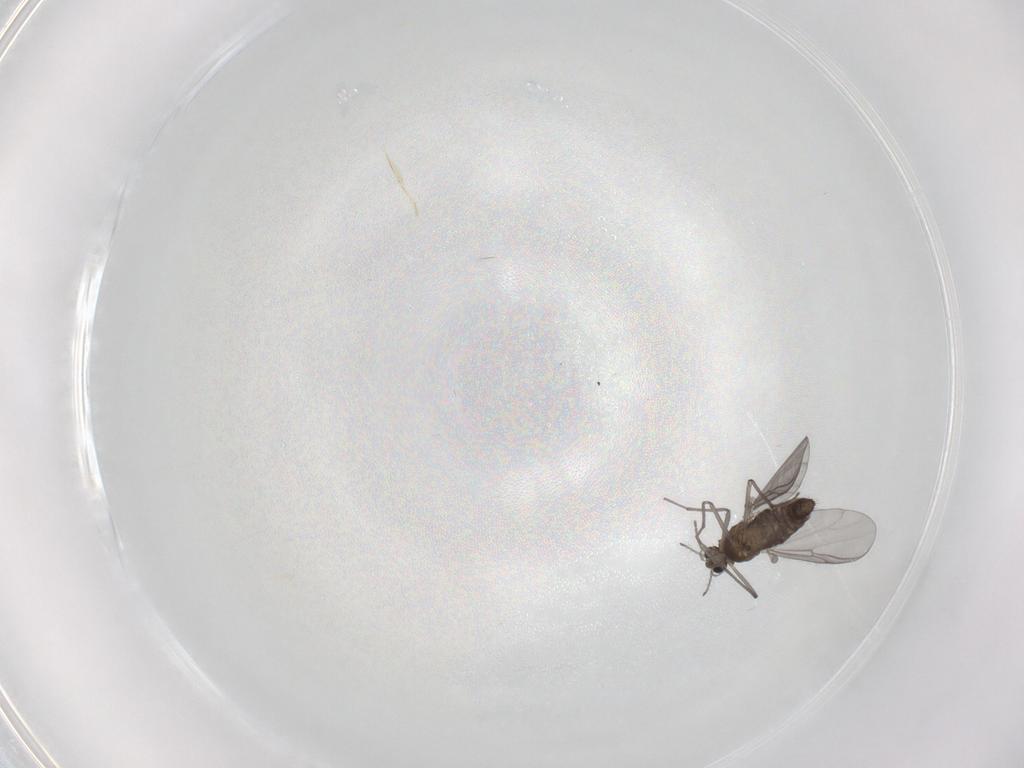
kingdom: Animalia
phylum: Arthropoda
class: Insecta
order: Diptera
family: Chironomidae
